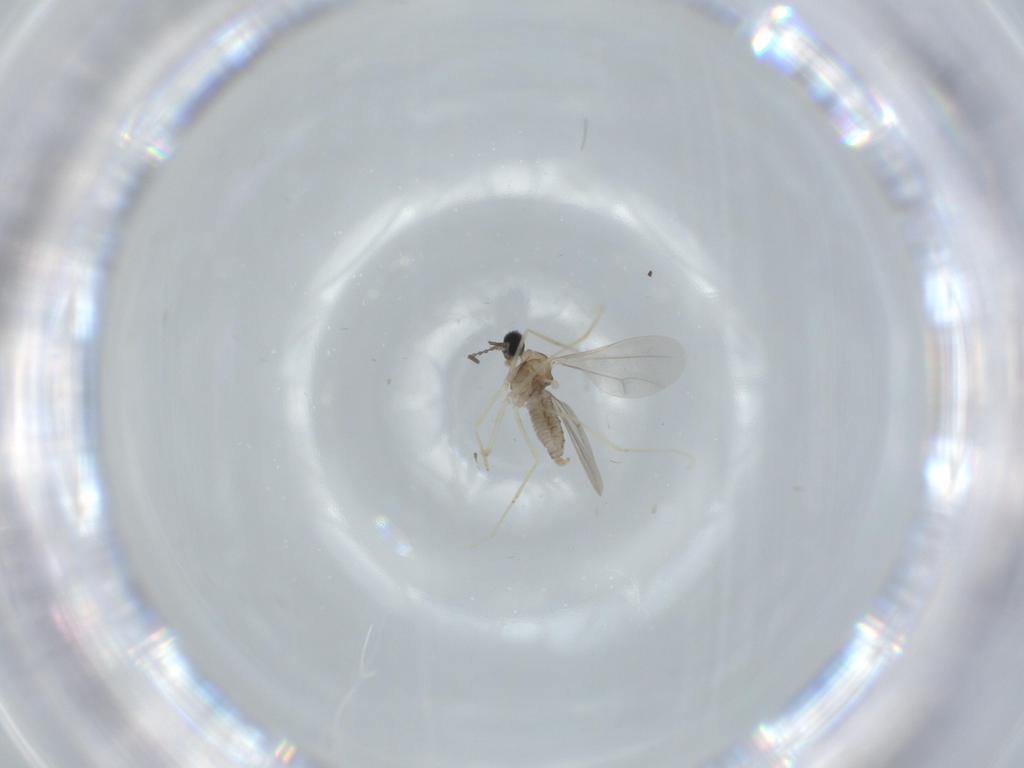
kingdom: Animalia
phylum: Arthropoda
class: Insecta
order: Diptera
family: Cecidomyiidae
